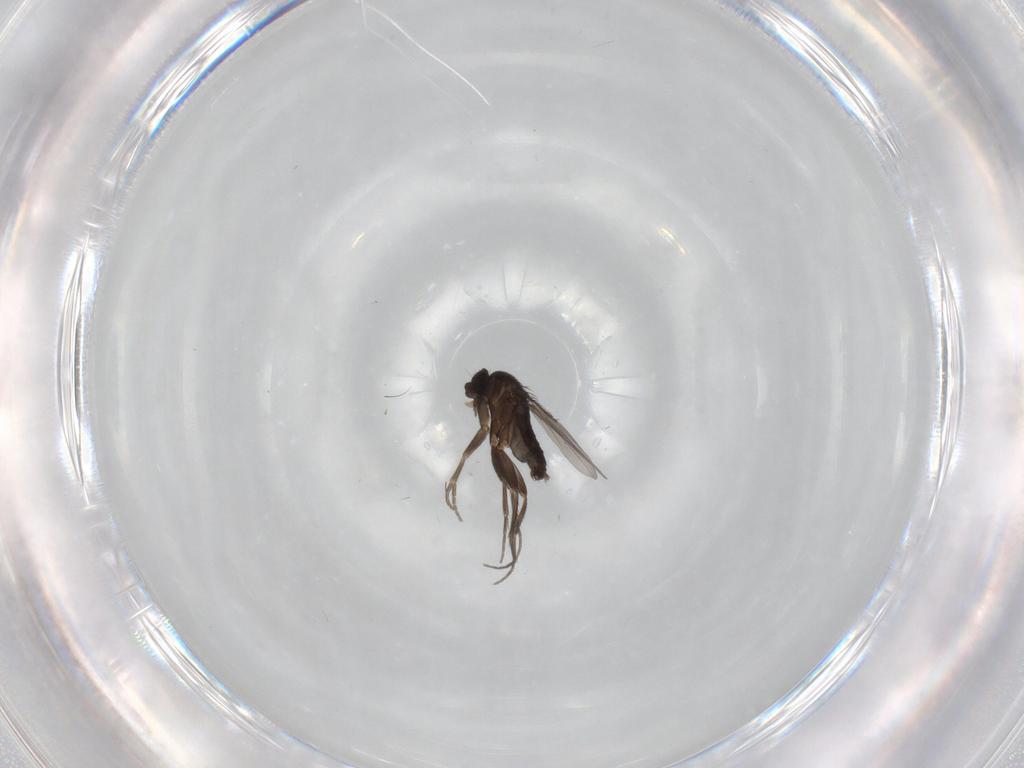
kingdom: Animalia
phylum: Arthropoda
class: Insecta
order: Diptera
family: Phoridae
